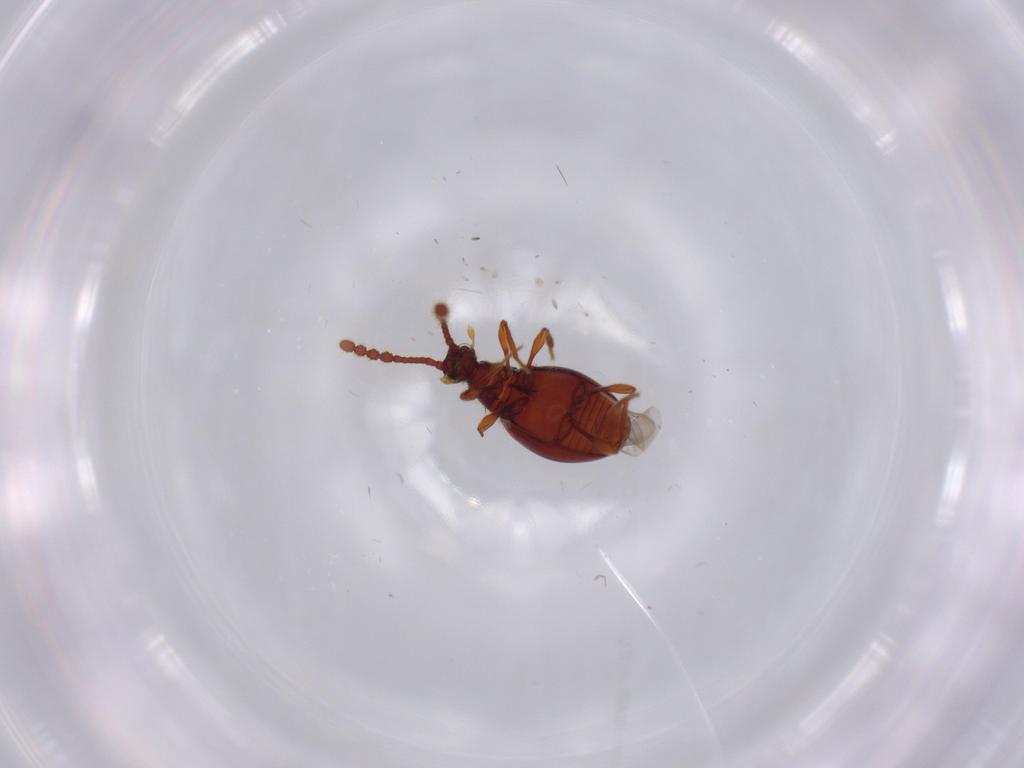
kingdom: Animalia
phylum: Arthropoda
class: Insecta
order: Coleoptera
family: Staphylinidae
